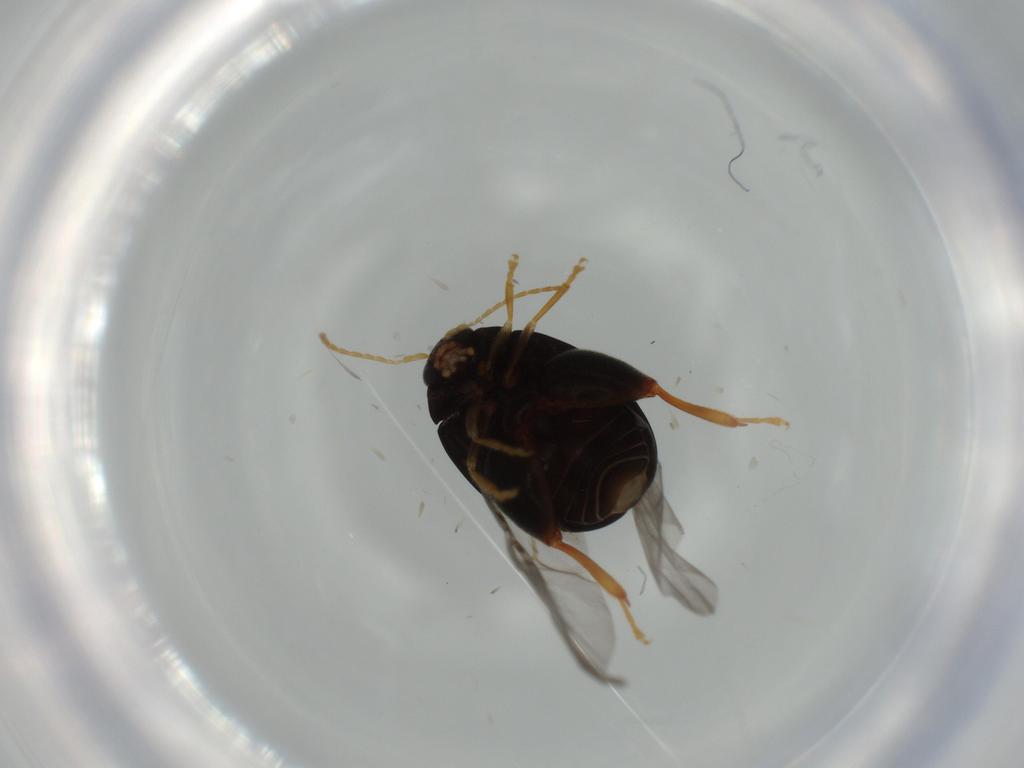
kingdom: Animalia
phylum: Arthropoda
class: Insecta
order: Coleoptera
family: Chrysomelidae
